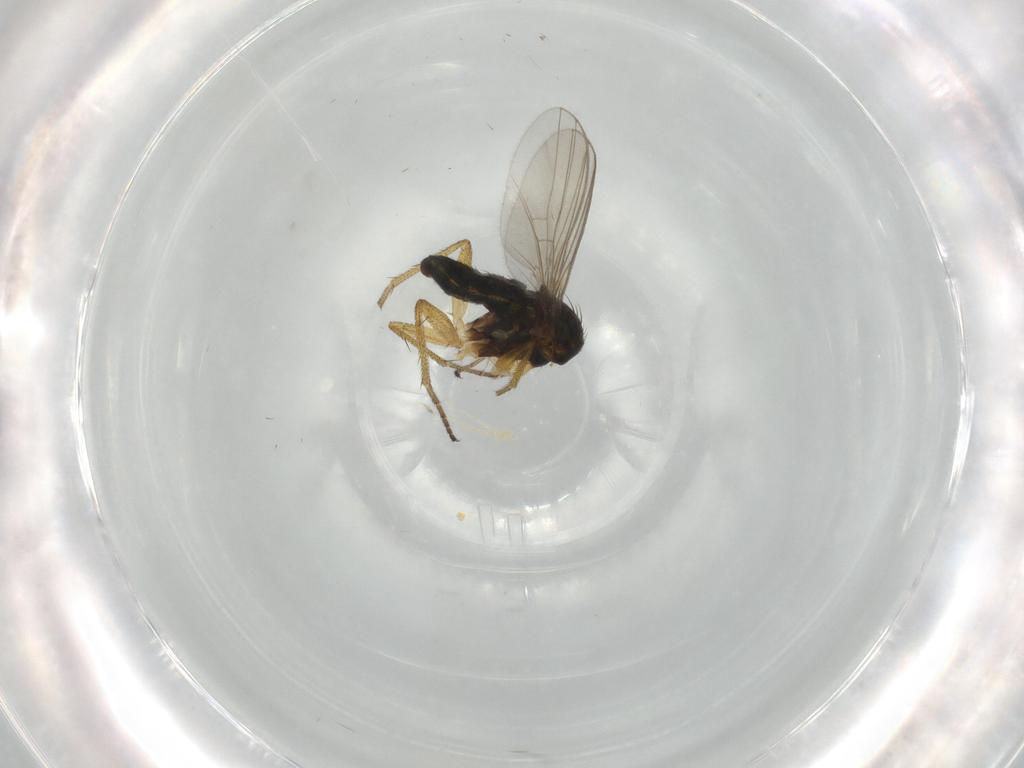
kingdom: Animalia
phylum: Arthropoda
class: Insecta
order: Diptera
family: Dolichopodidae
